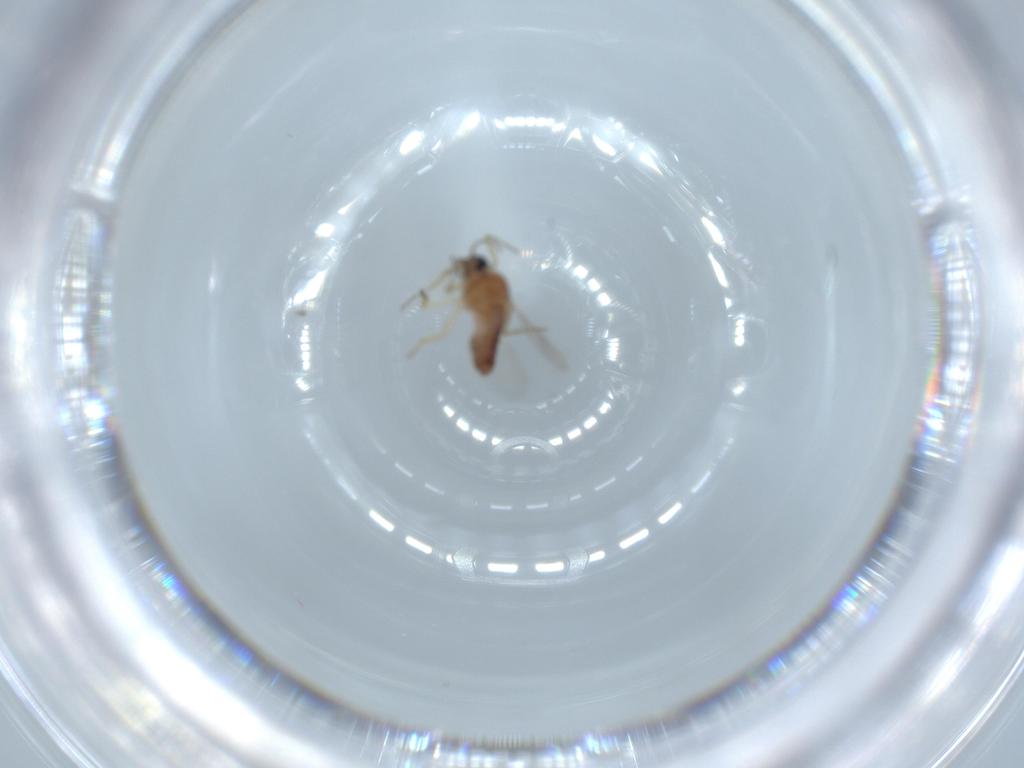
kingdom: Animalia
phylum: Arthropoda
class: Insecta
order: Diptera
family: Ceratopogonidae
